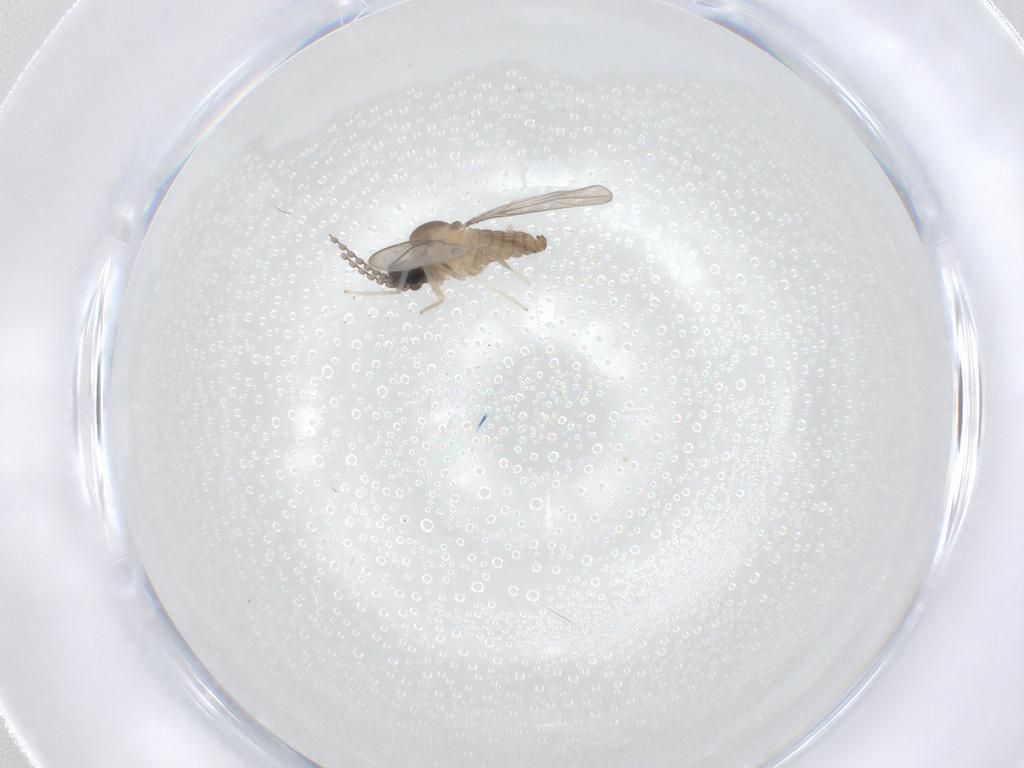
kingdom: Animalia
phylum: Arthropoda
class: Insecta
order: Diptera
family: Cecidomyiidae
